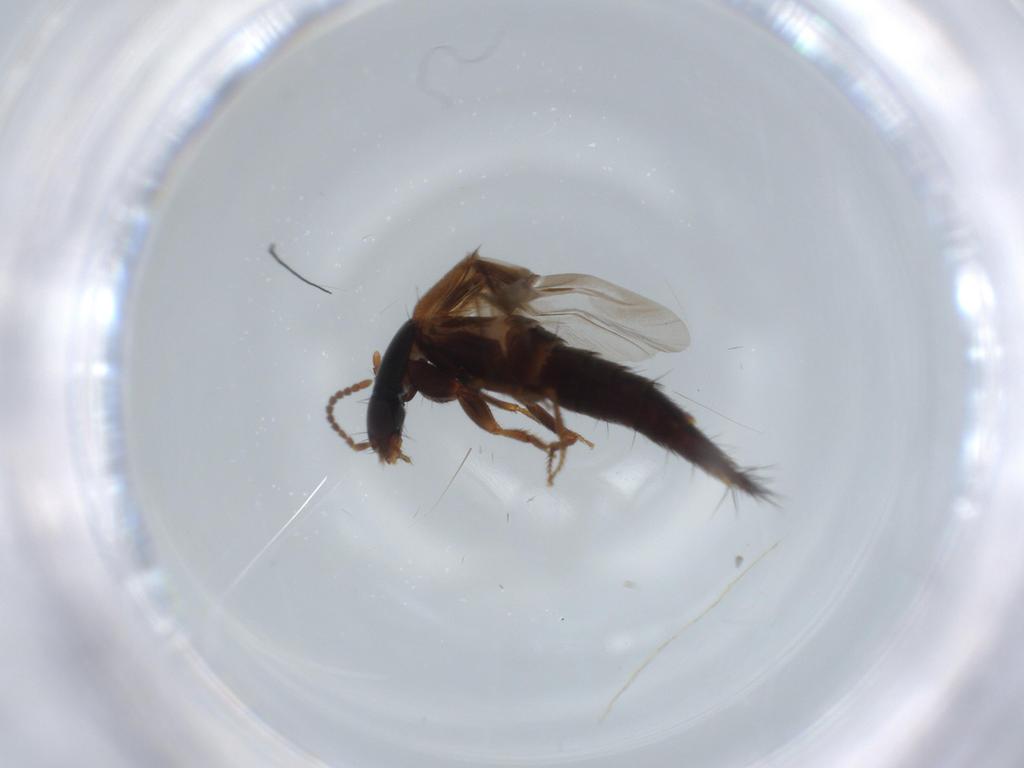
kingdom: Animalia
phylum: Arthropoda
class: Insecta
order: Coleoptera
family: Staphylinidae
